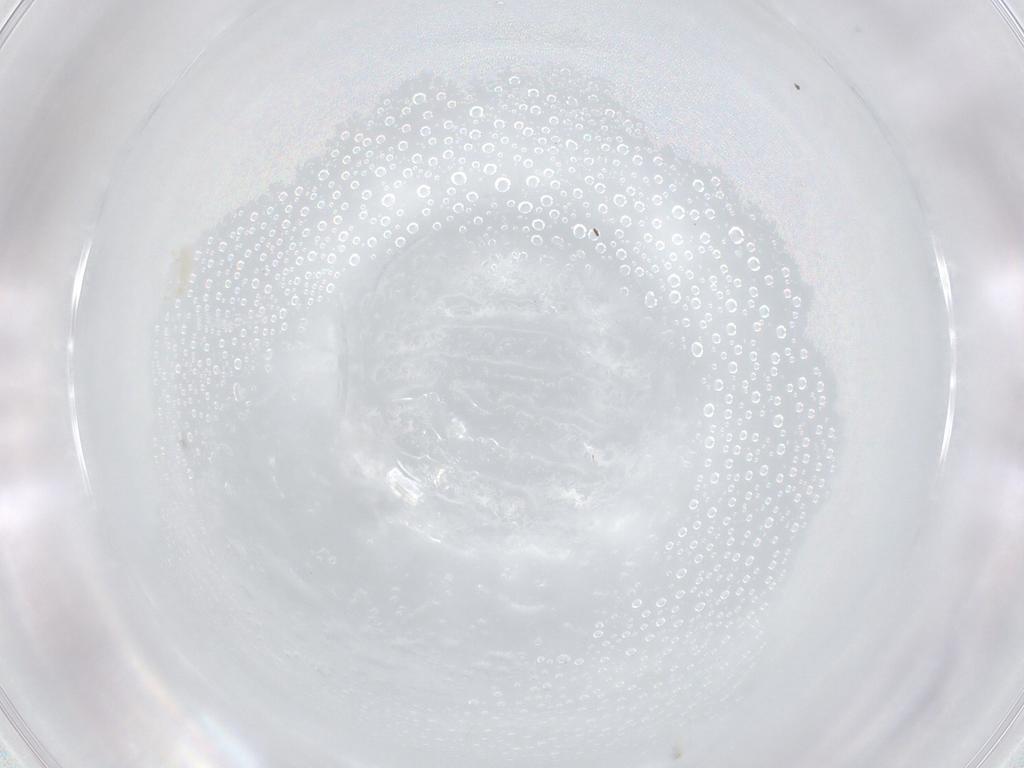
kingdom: Animalia
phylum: Arthropoda
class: Arachnida
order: Trombidiformes
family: Erythraeidae
